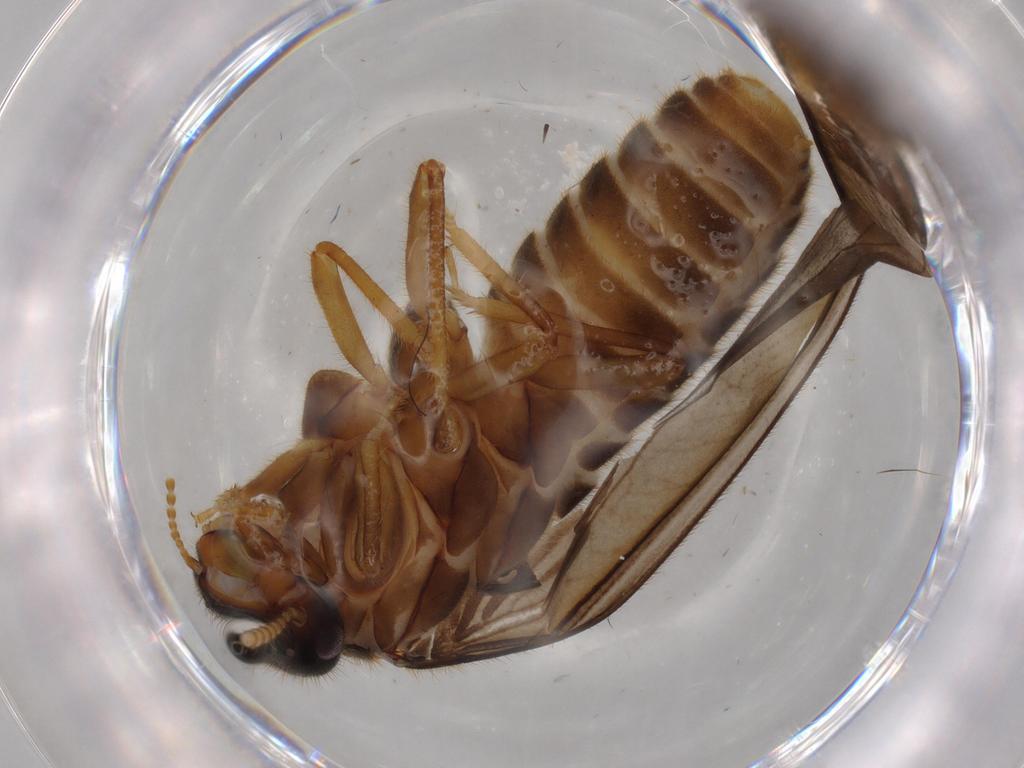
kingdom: Animalia
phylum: Arthropoda
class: Insecta
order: Blattodea
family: Termitidae
